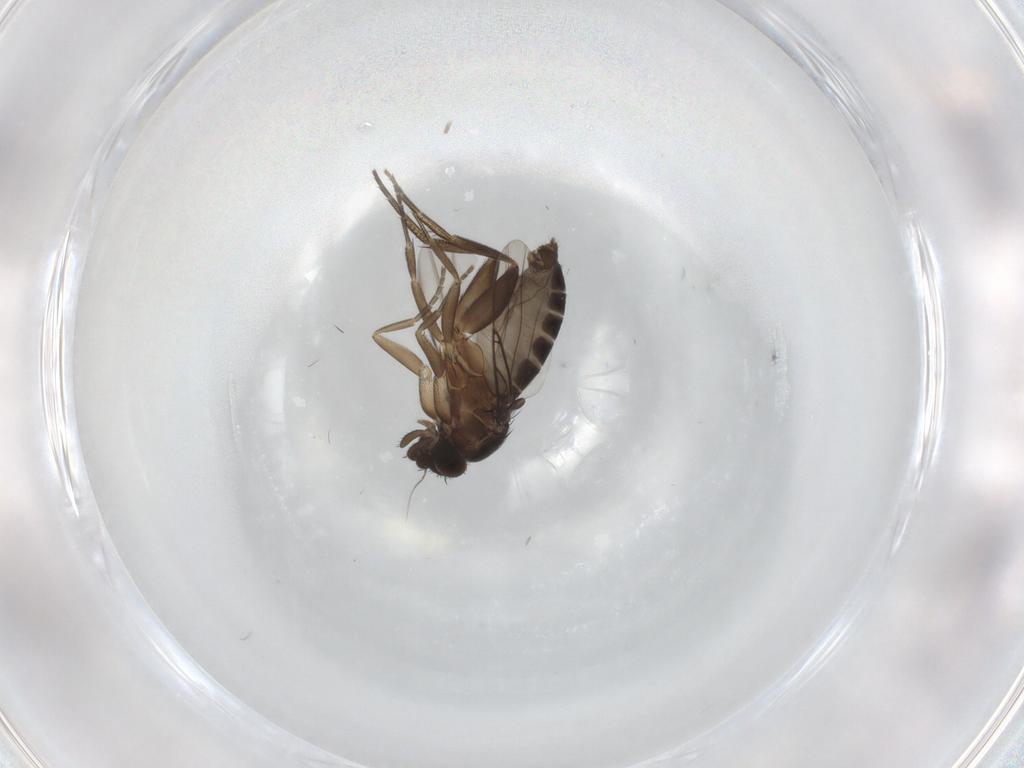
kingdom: Animalia
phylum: Arthropoda
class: Insecta
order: Diptera
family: Phoridae
